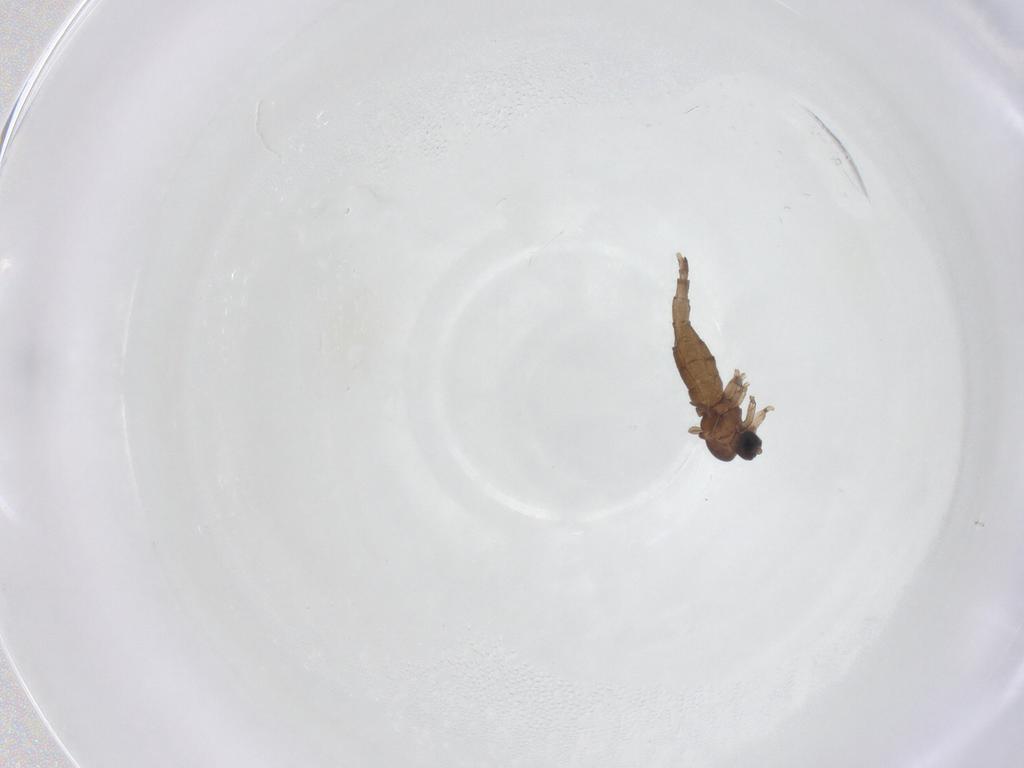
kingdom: Animalia
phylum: Arthropoda
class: Insecta
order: Diptera
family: Sciaridae
